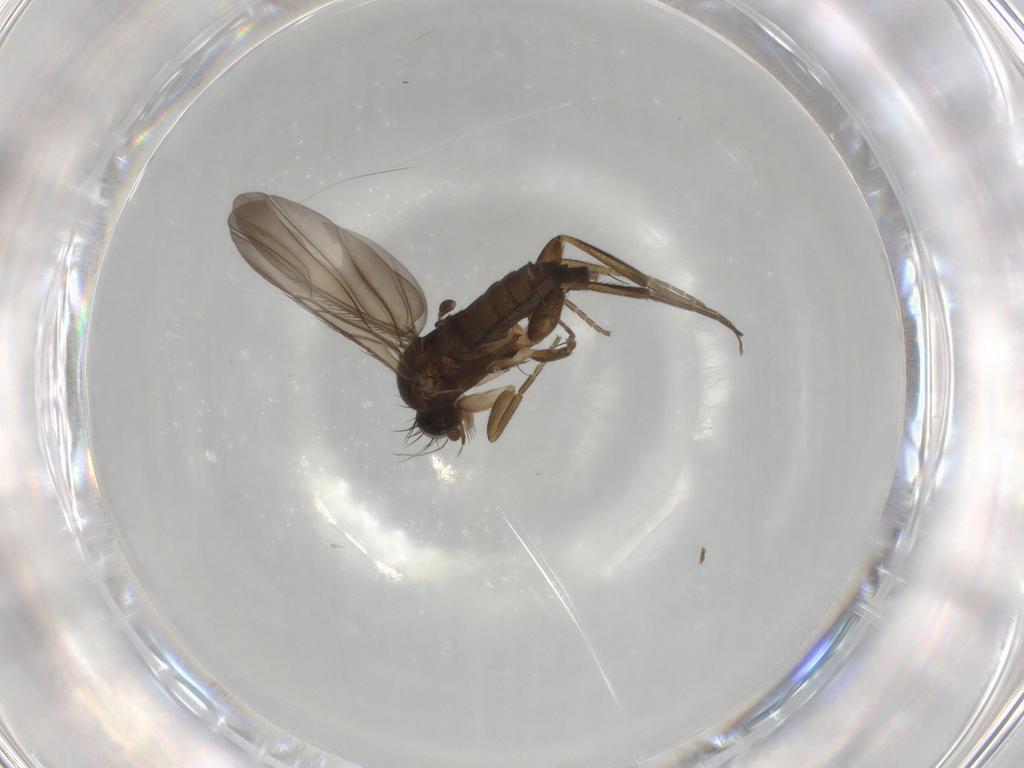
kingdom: Animalia
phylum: Arthropoda
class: Insecta
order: Diptera
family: Phoridae
